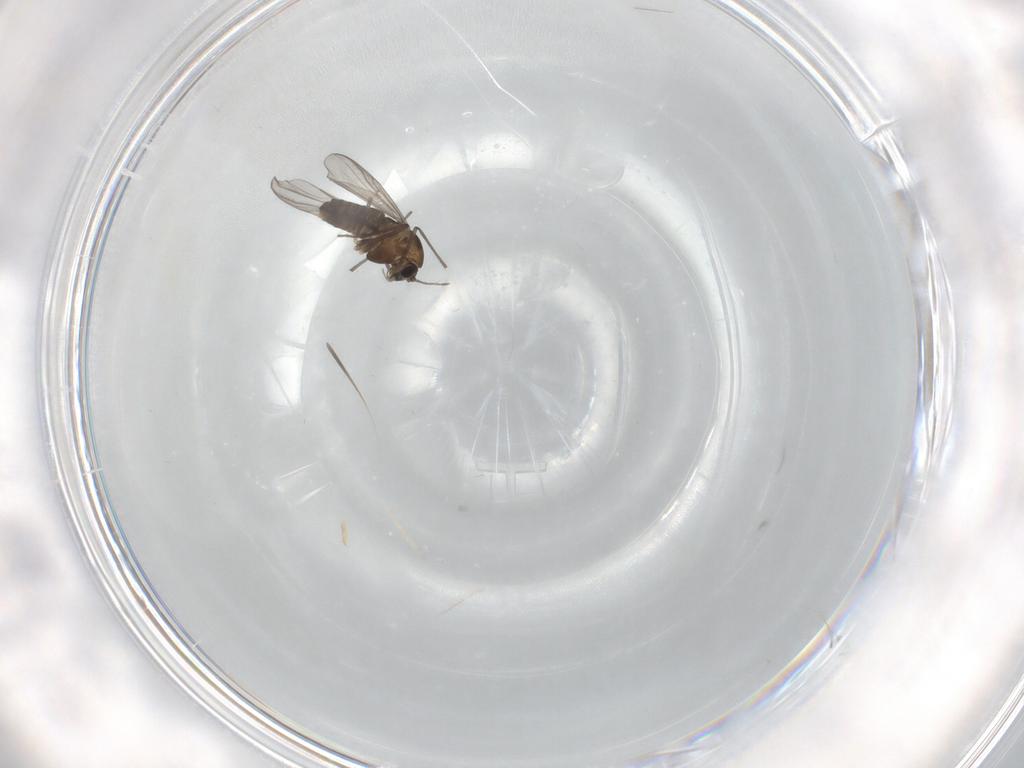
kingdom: Animalia
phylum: Arthropoda
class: Insecta
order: Diptera
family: Chironomidae
